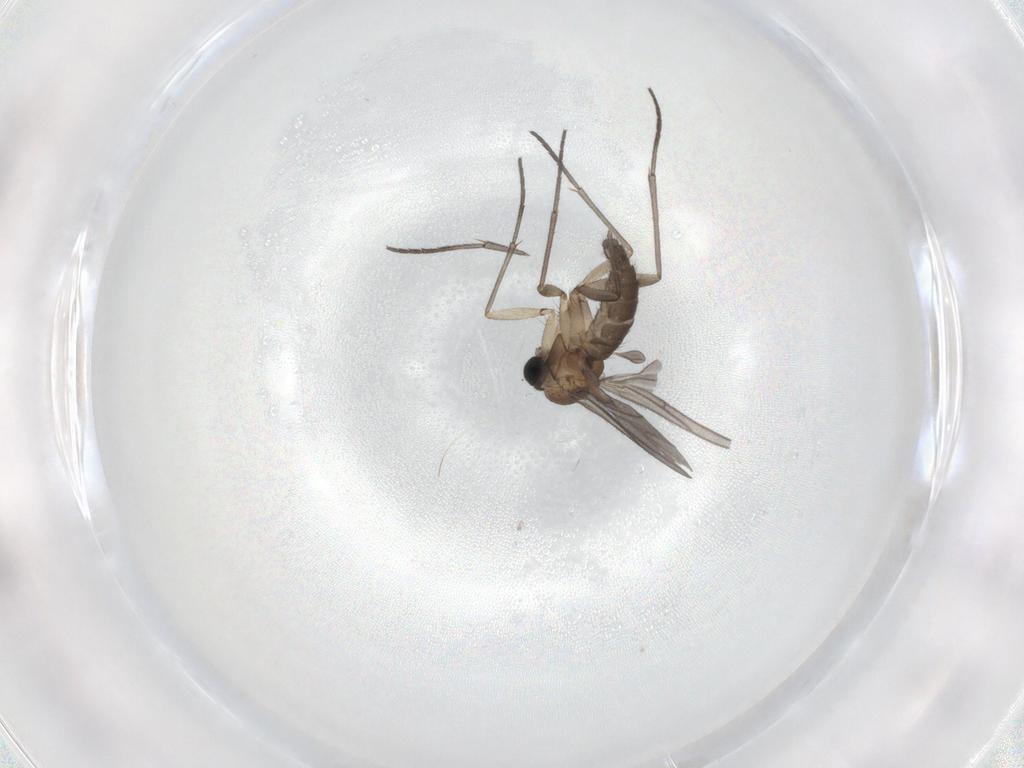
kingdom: Animalia
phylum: Arthropoda
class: Insecta
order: Diptera
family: Sciaridae
